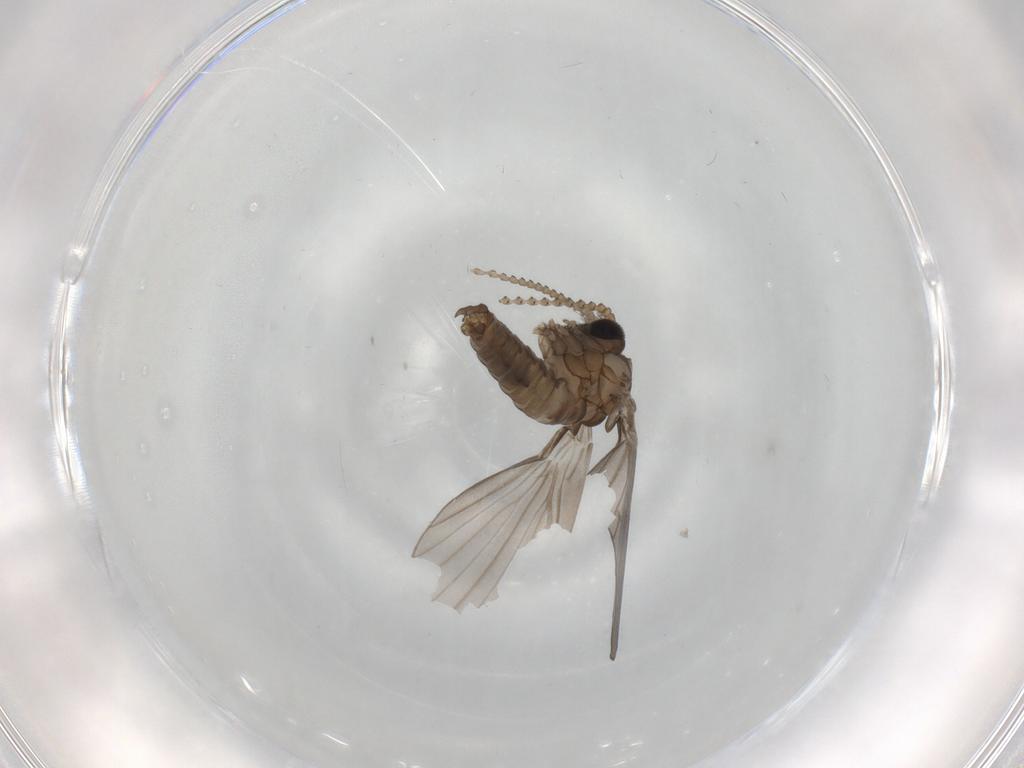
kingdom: Animalia
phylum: Arthropoda
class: Insecta
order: Diptera
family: Psychodidae
